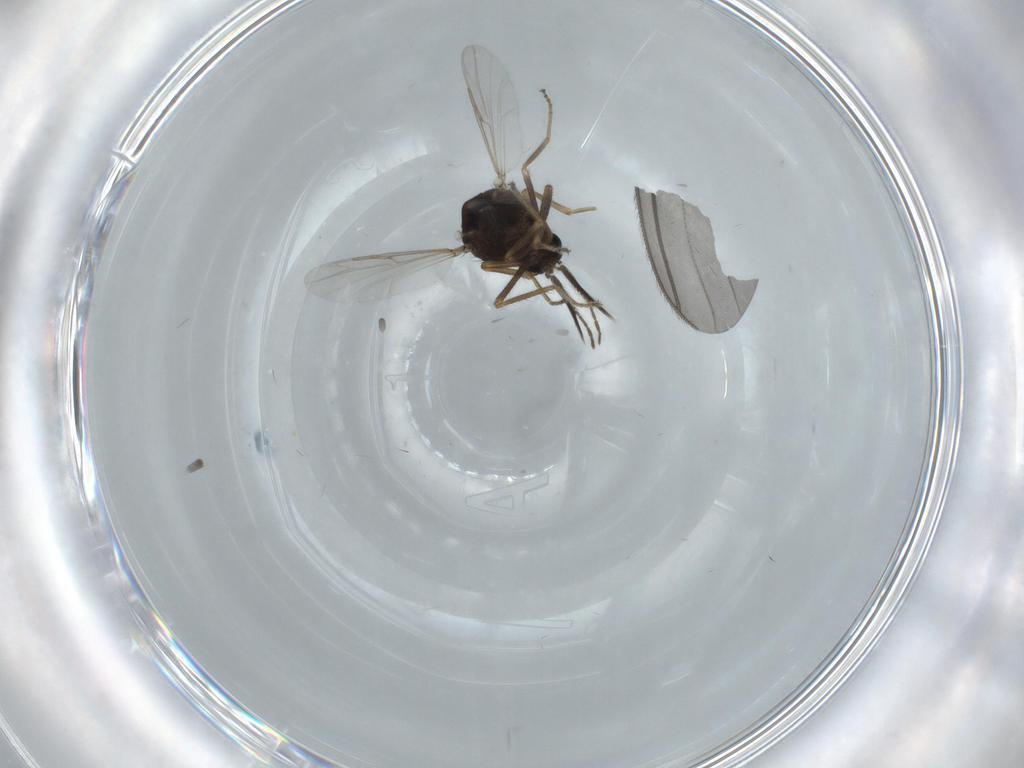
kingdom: Animalia
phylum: Arthropoda
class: Insecta
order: Diptera
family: Ceratopogonidae
